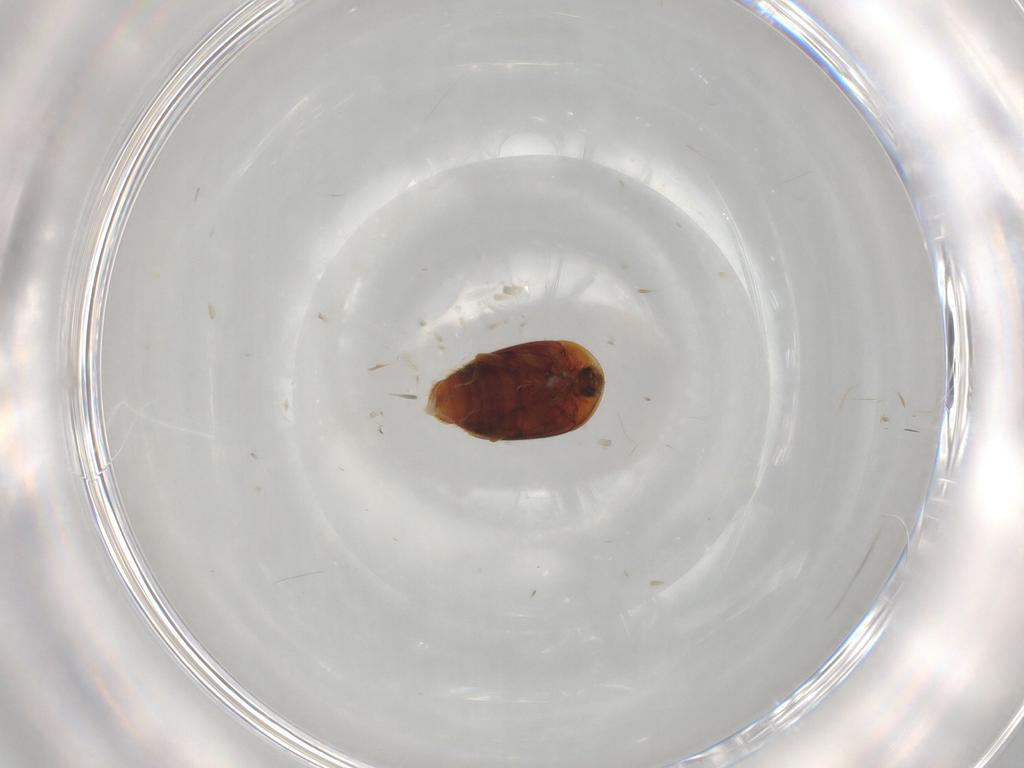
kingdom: Animalia
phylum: Arthropoda
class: Insecta
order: Coleoptera
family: Corylophidae
